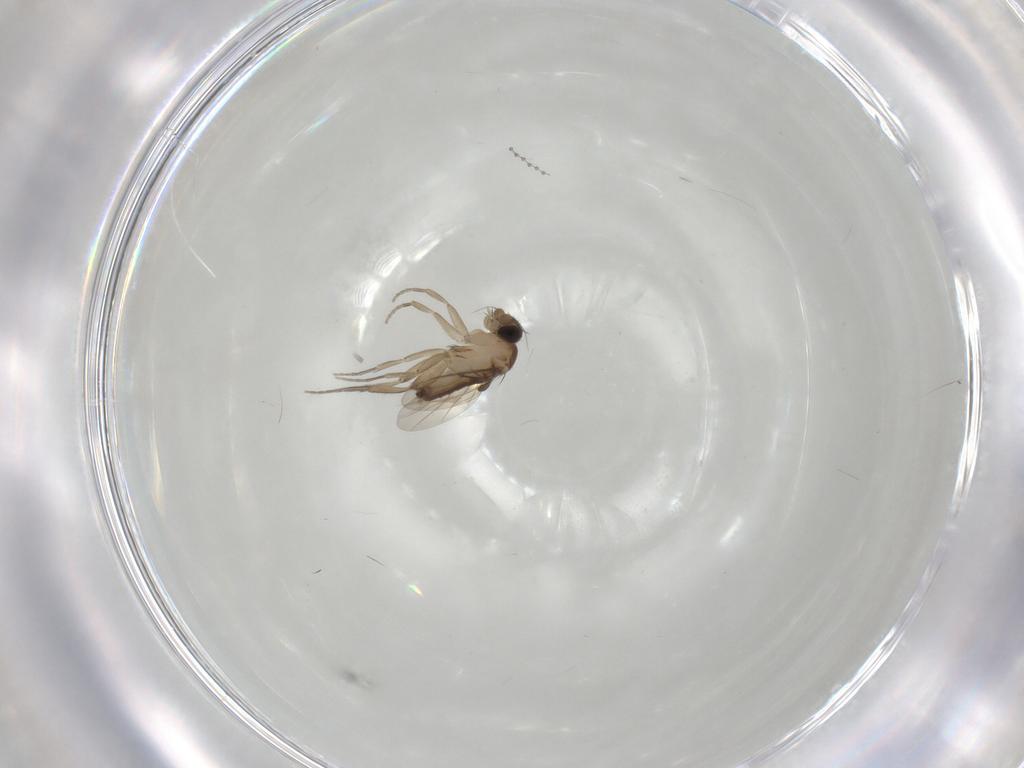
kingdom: Animalia
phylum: Arthropoda
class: Insecta
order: Diptera
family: Phoridae
